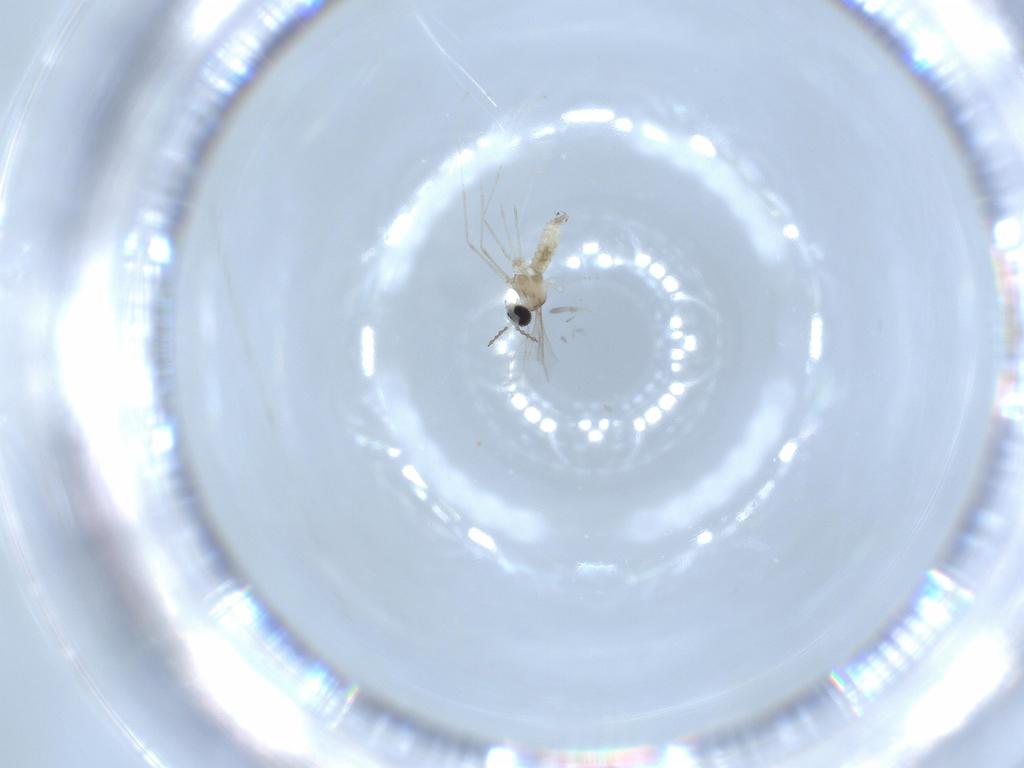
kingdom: Animalia
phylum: Arthropoda
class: Insecta
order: Diptera
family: Cecidomyiidae
